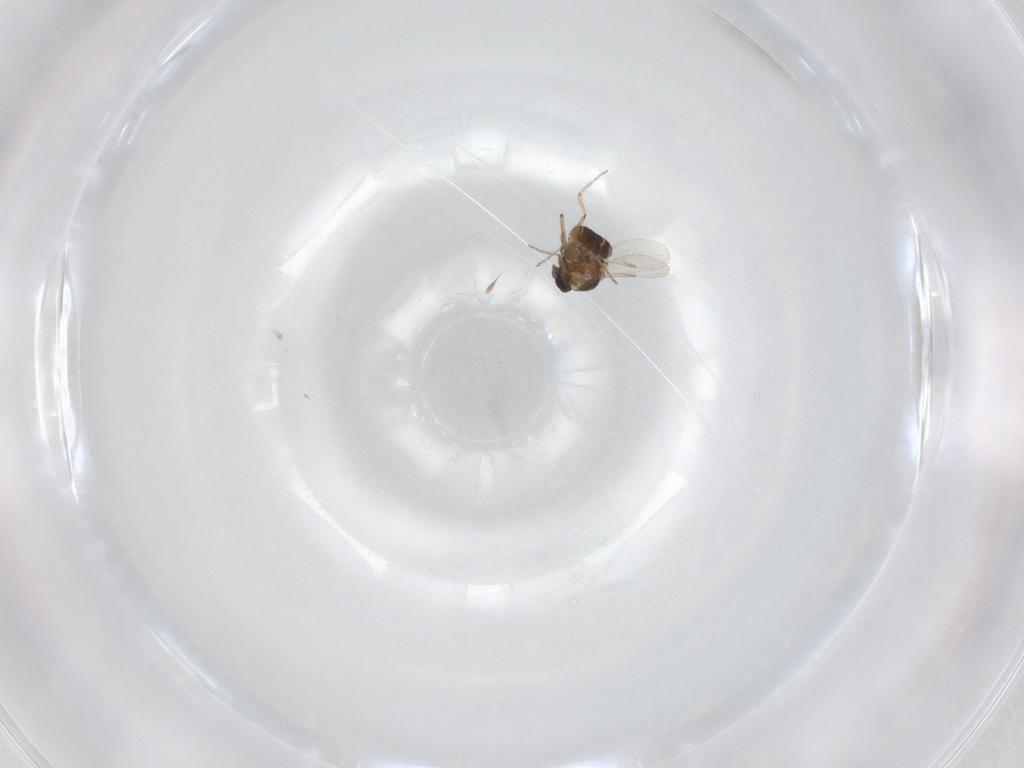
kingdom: Animalia
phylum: Arthropoda
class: Insecta
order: Diptera
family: Ceratopogonidae
